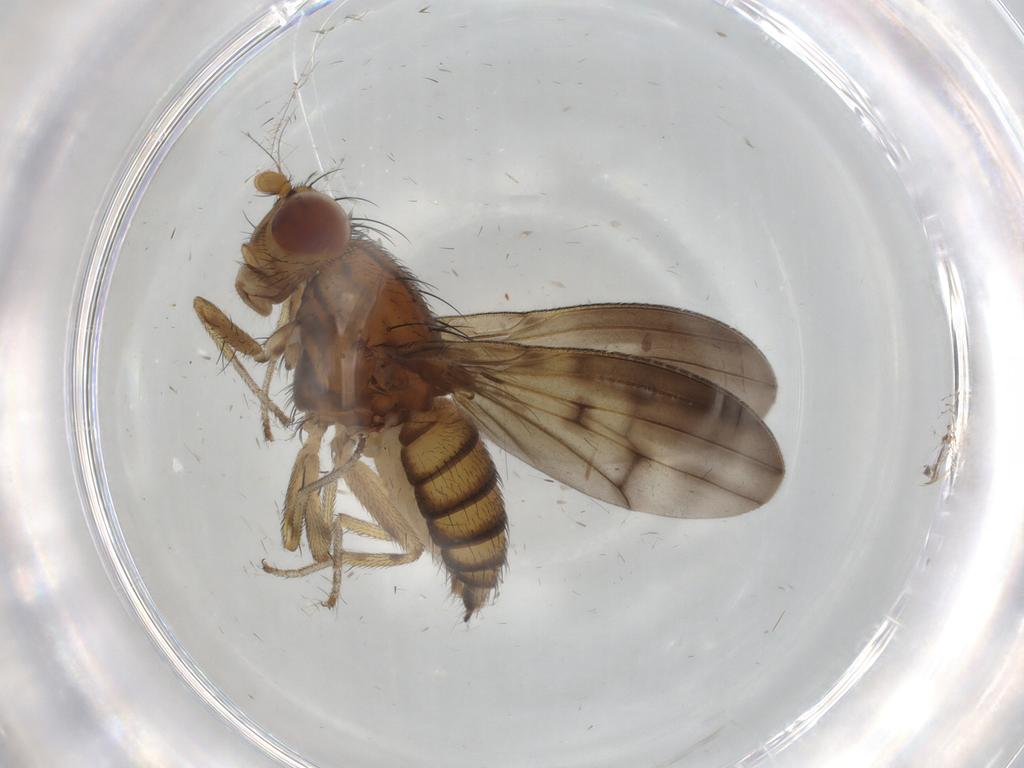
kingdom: Animalia
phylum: Arthropoda
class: Insecta
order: Diptera
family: Lauxaniidae
